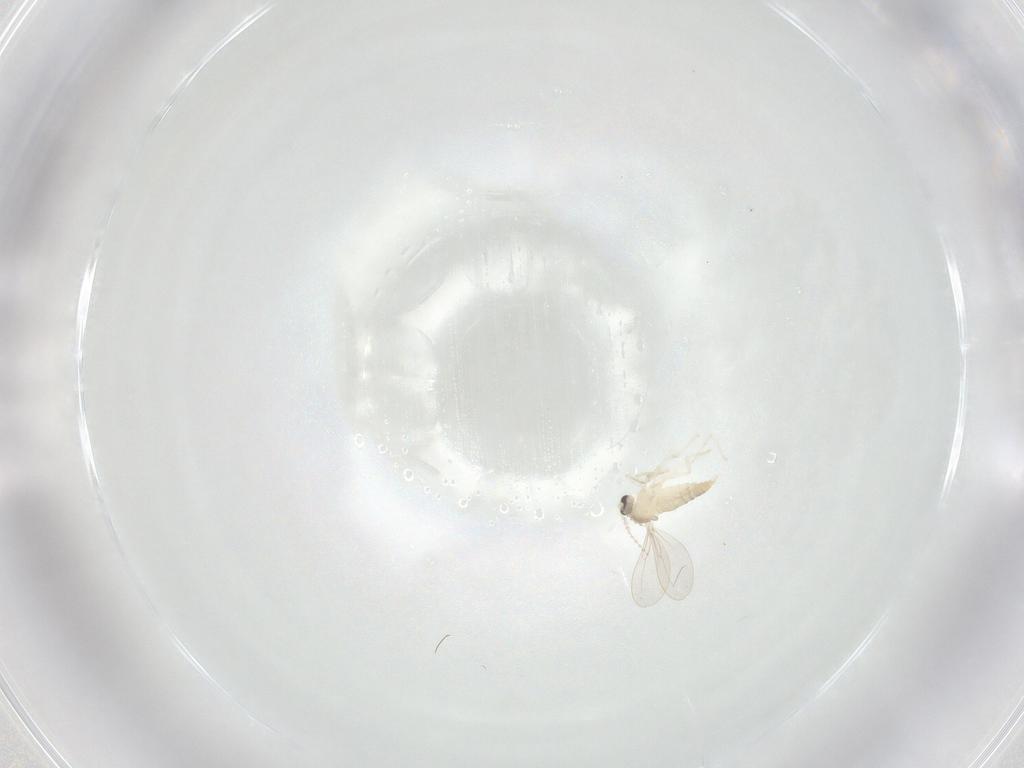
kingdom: Animalia
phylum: Arthropoda
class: Insecta
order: Diptera
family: Cecidomyiidae
